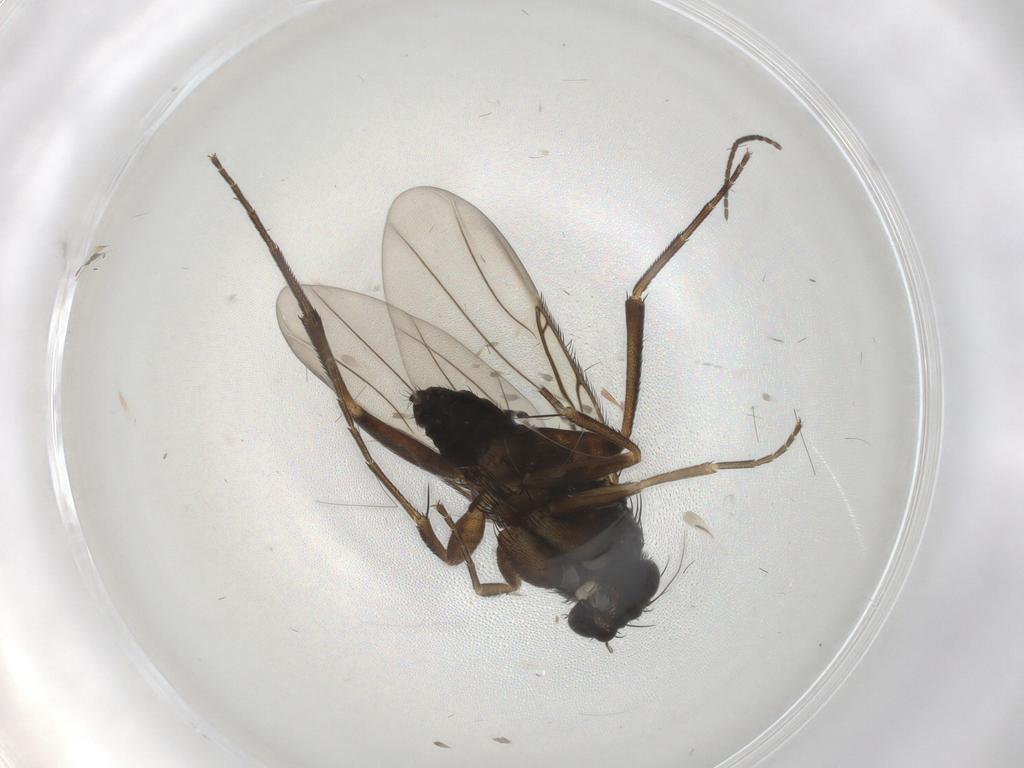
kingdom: Animalia
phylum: Arthropoda
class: Insecta
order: Diptera
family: Phoridae
